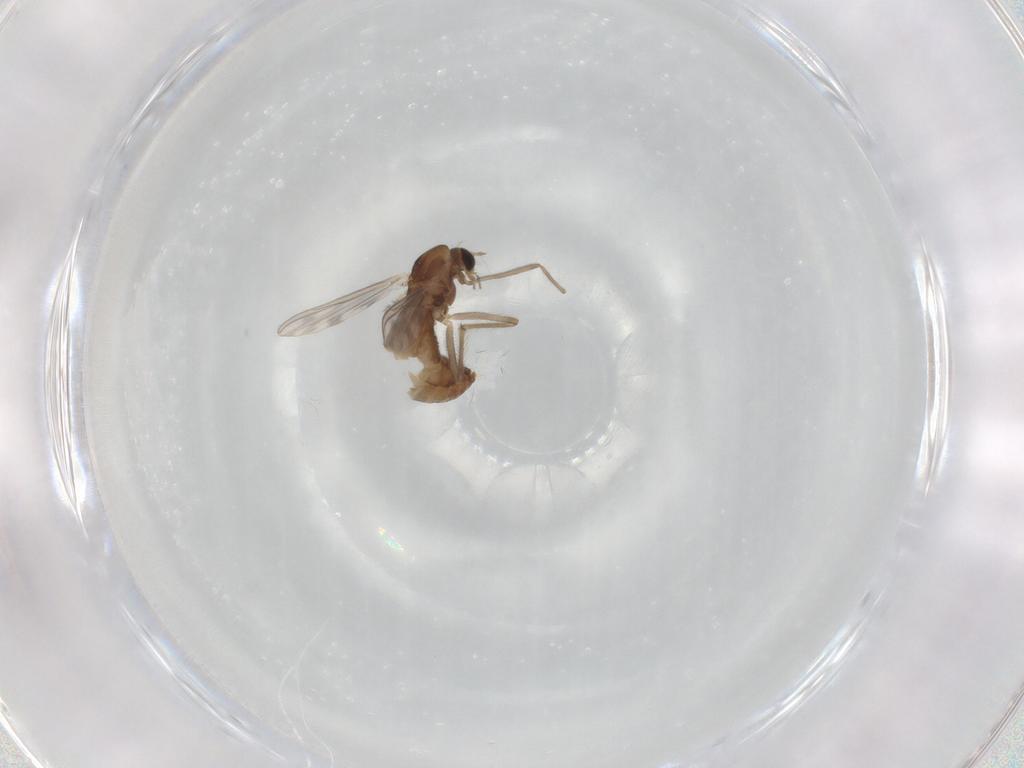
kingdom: Animalia
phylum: Arthropoda
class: Insecta
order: Diptera
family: Chironomidae
